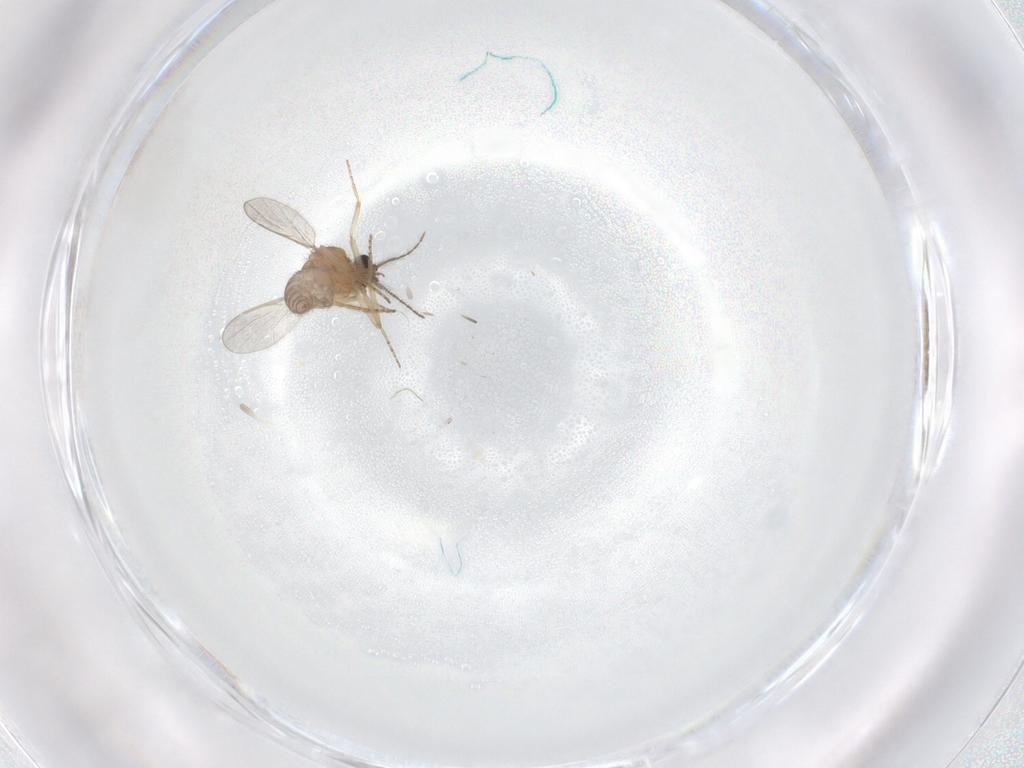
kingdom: Animalia
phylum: Arthropoda
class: Insecta
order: Diptera
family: Ceratopogonidae
